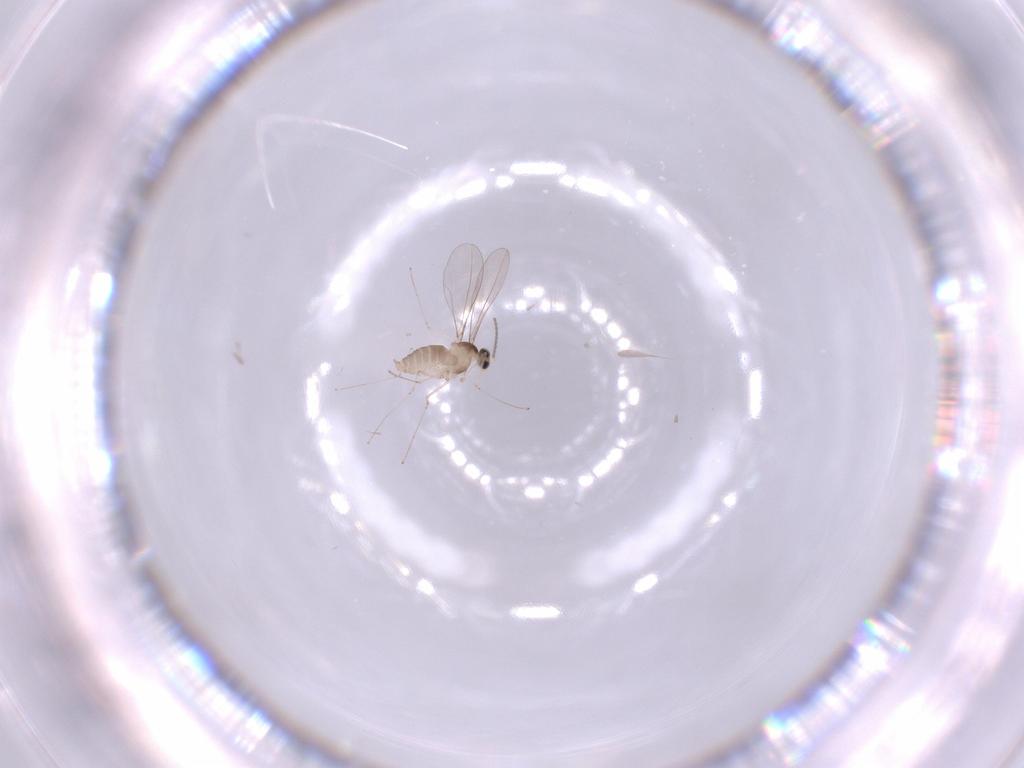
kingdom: Animalia
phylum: Arthropoda
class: Insecta
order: Diptera
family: Cecidomyiidae
